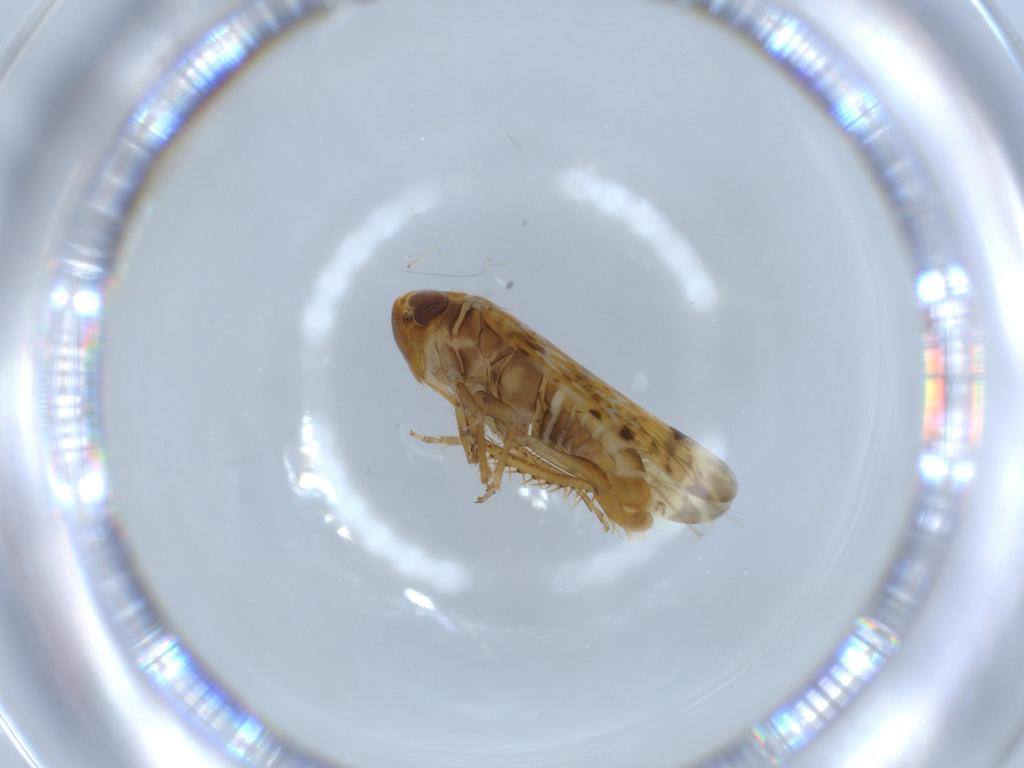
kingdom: Animalia
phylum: Arthropoda
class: Insecta
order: Hemiptera
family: Cicadellidae
